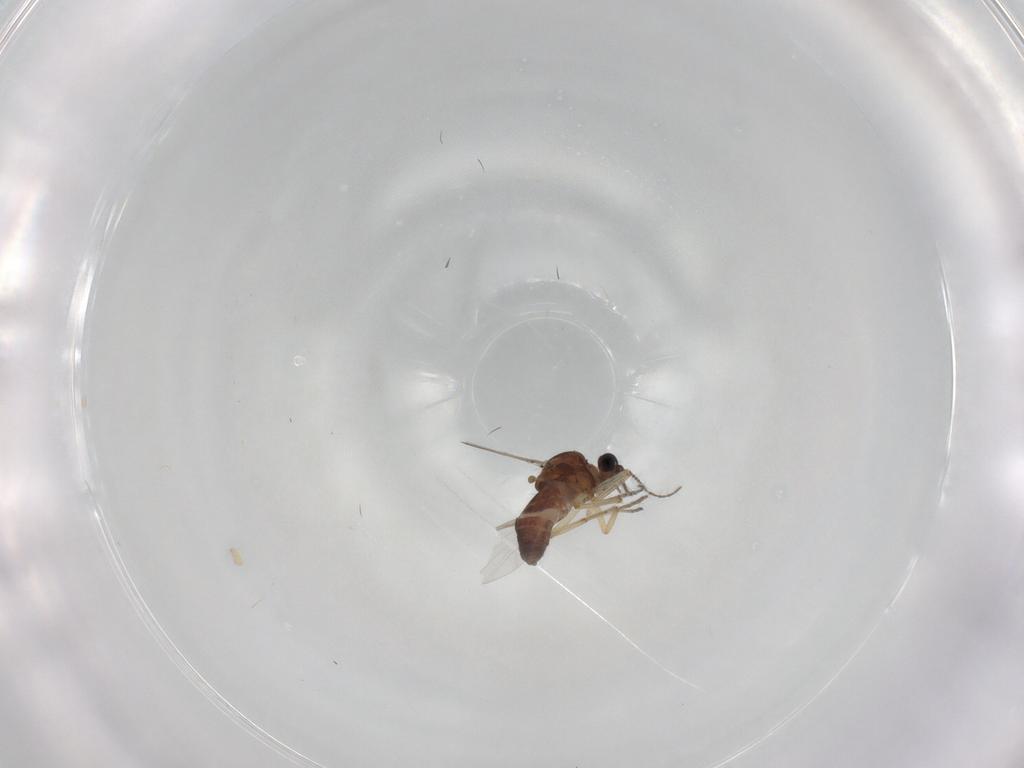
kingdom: Animalia
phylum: Arthropoda
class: Insecta
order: Diptera
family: Ceratopogonidae
